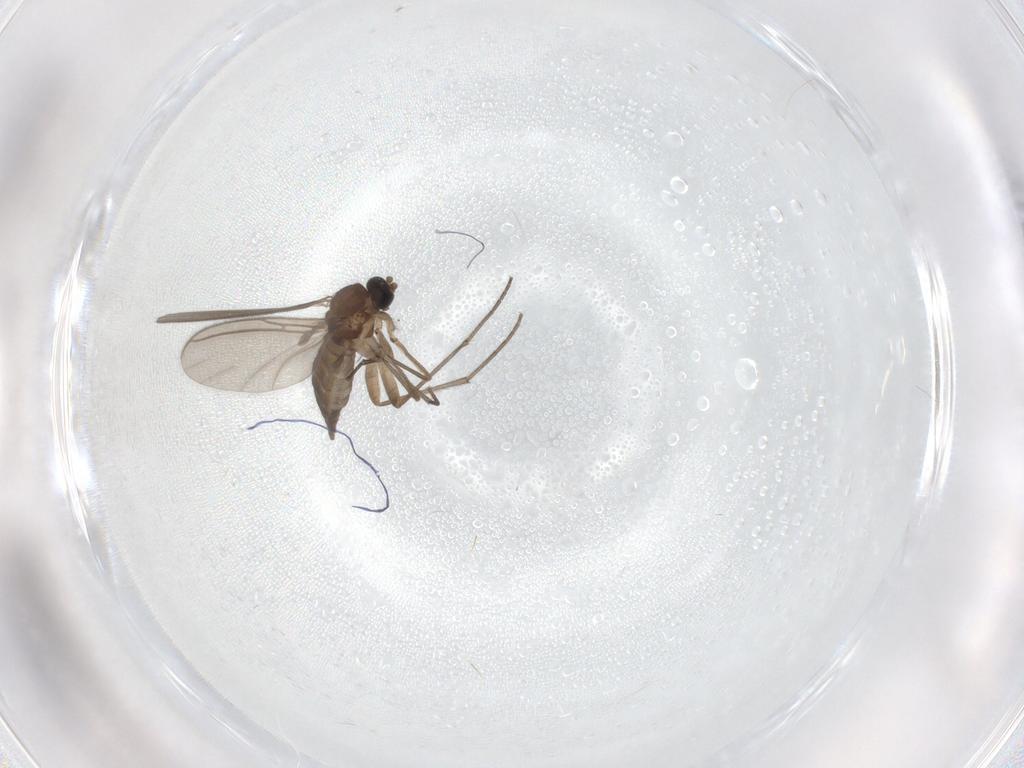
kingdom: Animalia
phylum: Arthropoda
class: Insecta
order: Diptera
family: Sciaridae
